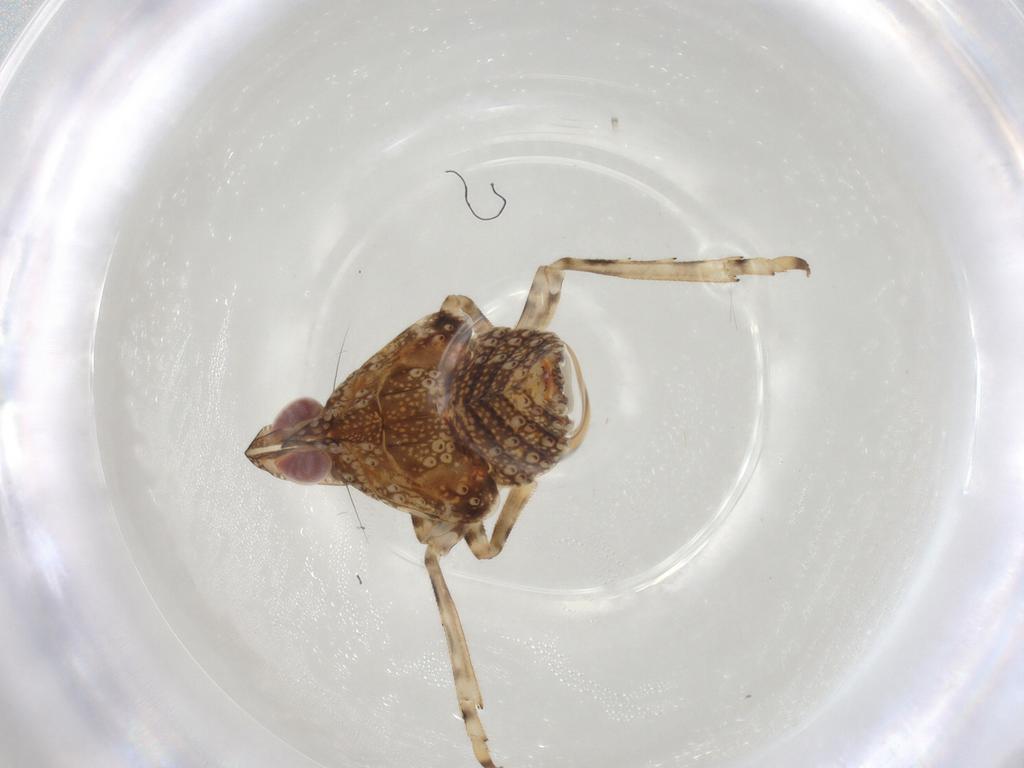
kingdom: Animalia
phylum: Arthropoda
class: Insecta
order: Hemiptera
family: Tropiduchidae
